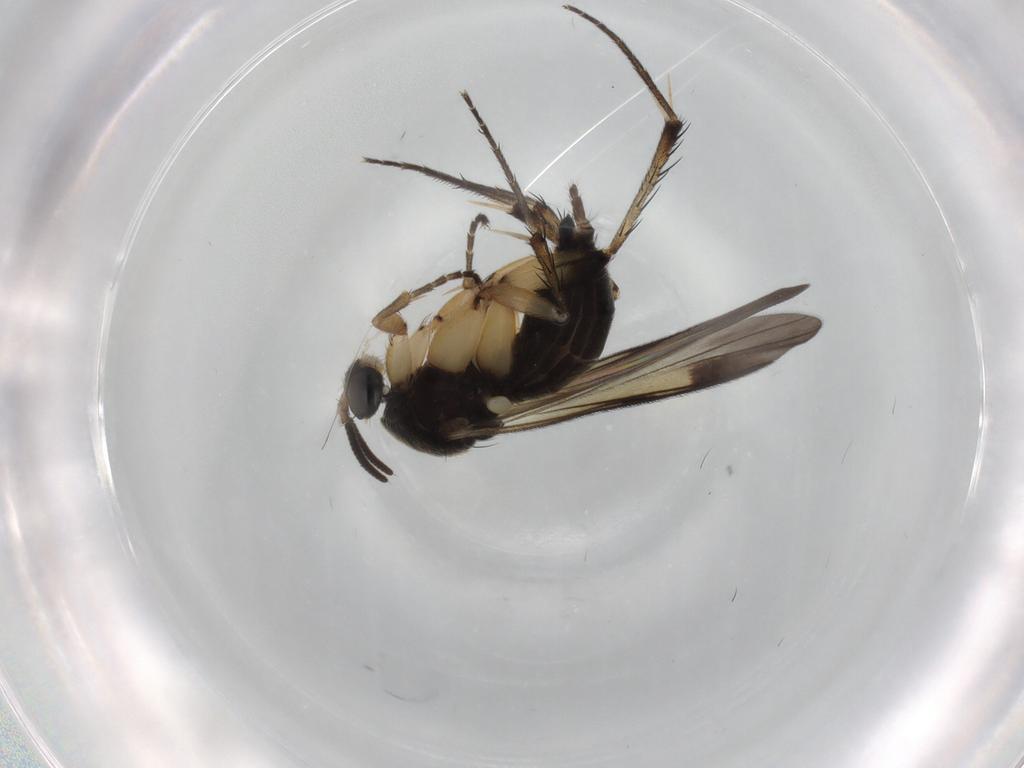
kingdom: Animalia
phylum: Arthropoda
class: Insecta
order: Diptera
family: Mycetophilidae
